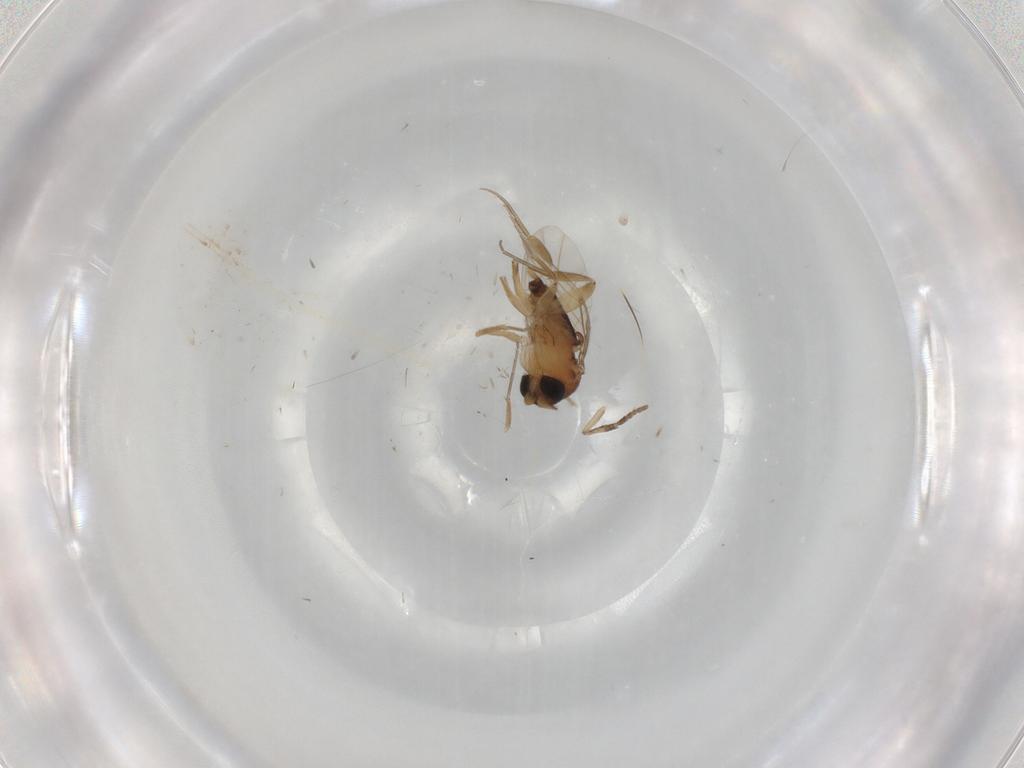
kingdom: Animalia
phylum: Arthropoda
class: Insecta
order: Diptera
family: Phoridae
